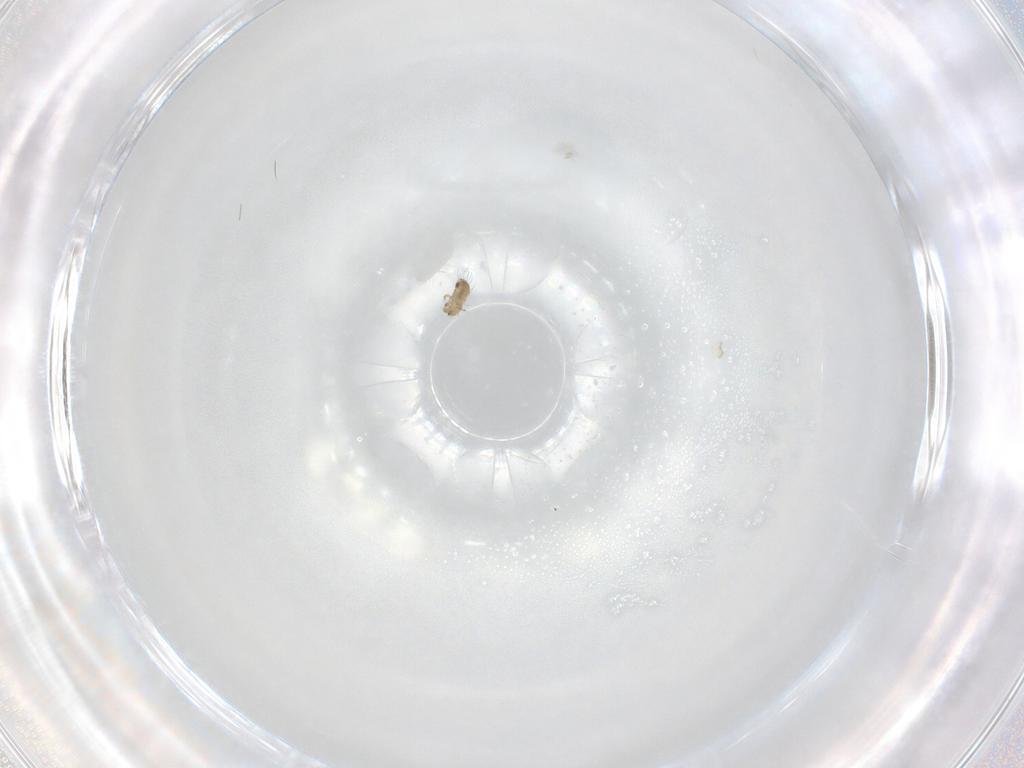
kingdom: Animalia
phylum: Arthropoda
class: Arachnida
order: Sarcoptiformes
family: Humerobatidae
